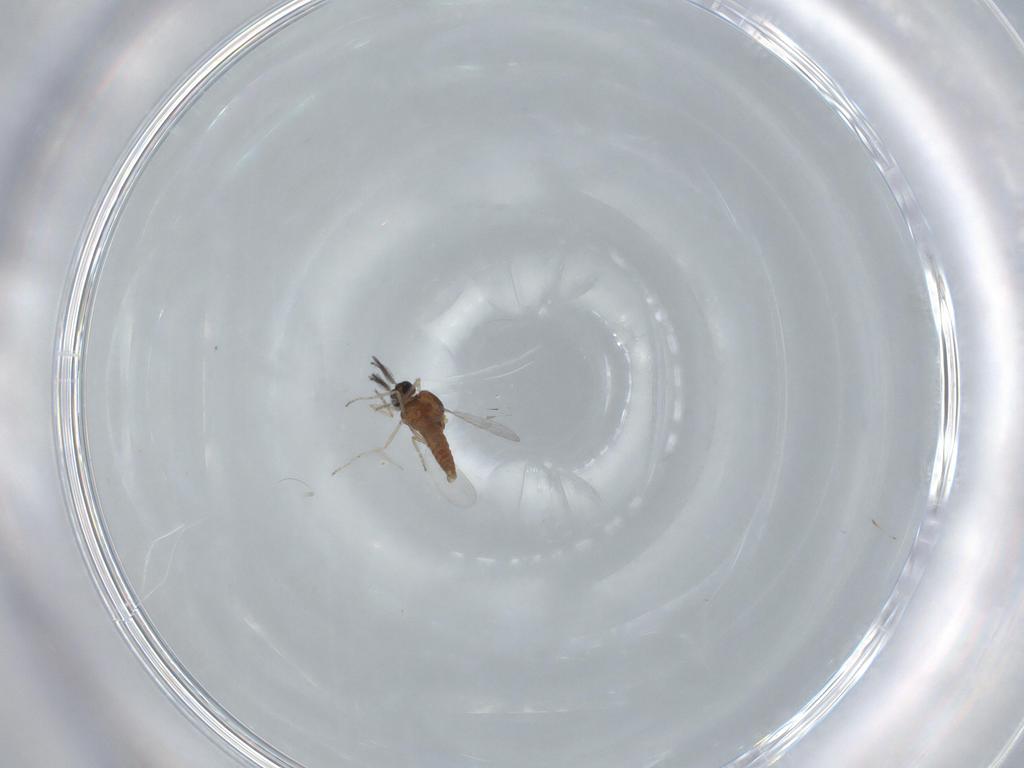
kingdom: Animalia
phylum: Arthropoda
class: Insecta
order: Diptera
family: Ceratopogonidae
